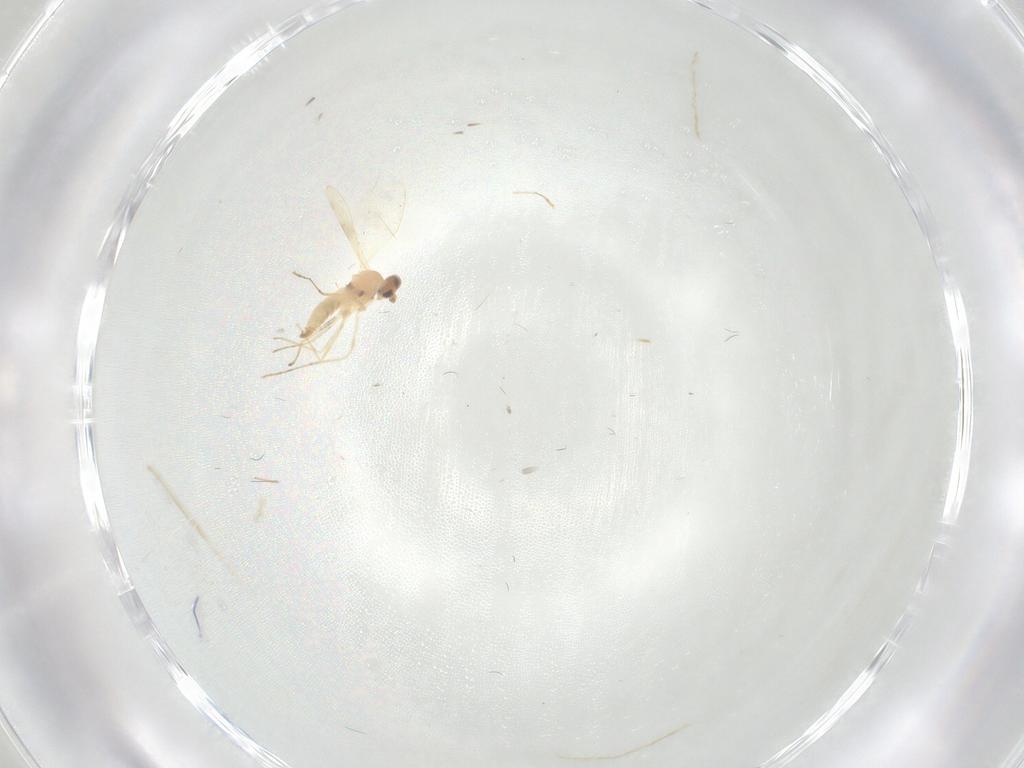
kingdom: Animalia
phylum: Arthropoda
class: Insecta
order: Diptera
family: Cecidomyiidae
